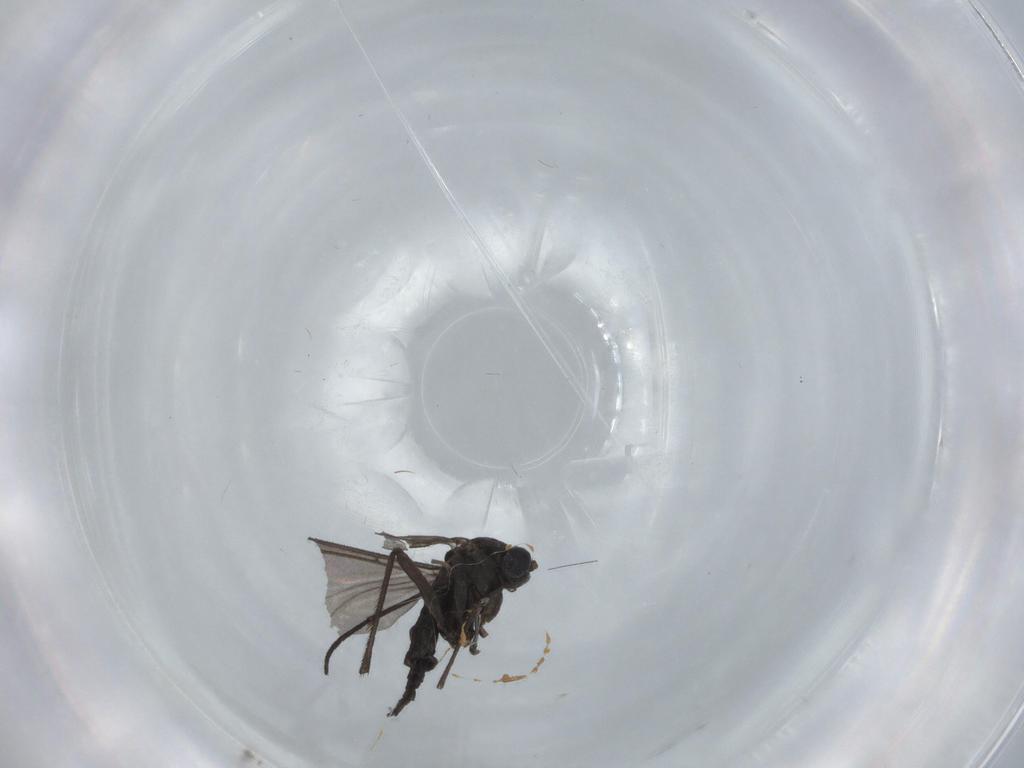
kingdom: Animalia
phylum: Arthropoda
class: Insecta
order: Diptera
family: Sciaridae
